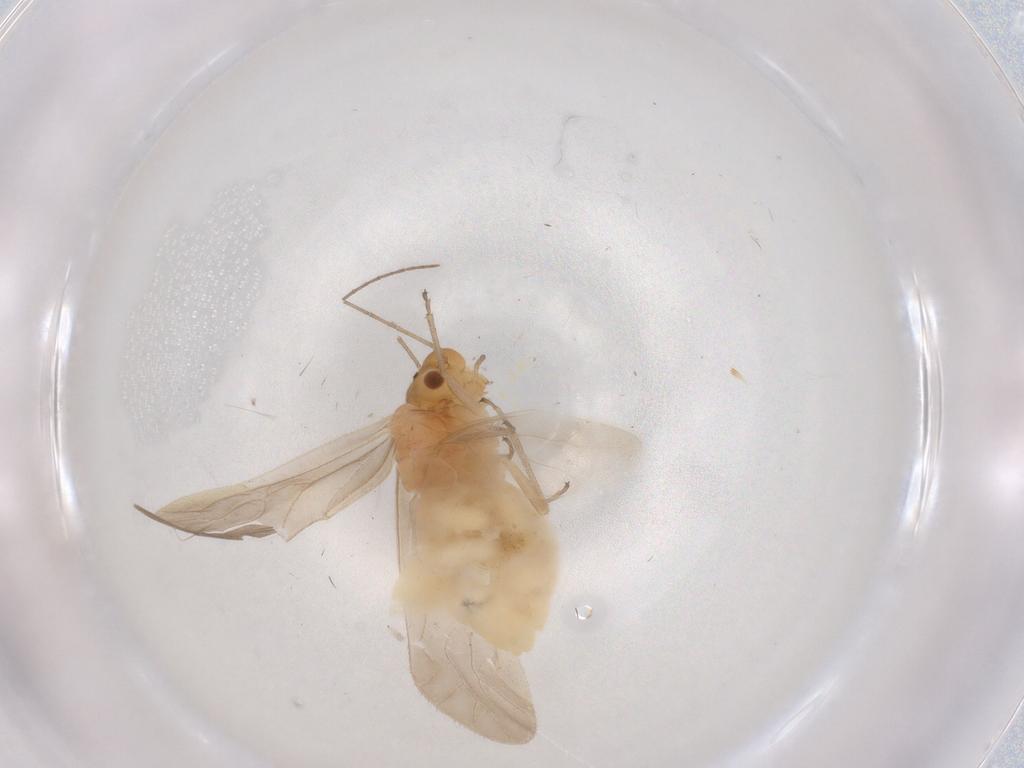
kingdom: Animalia
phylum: Arthropoda
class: Insecta
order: Psocodea
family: Caeciliusidae
